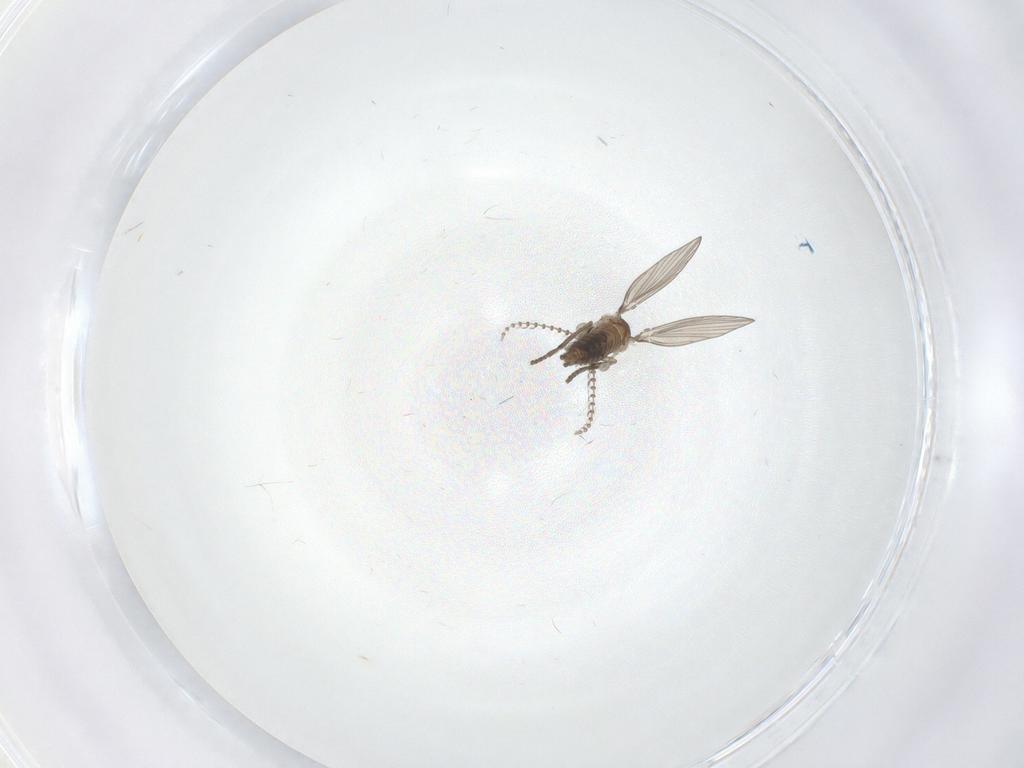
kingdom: Animalia
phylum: Arthropoda
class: Insecta
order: Diptera
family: Psychodidae
